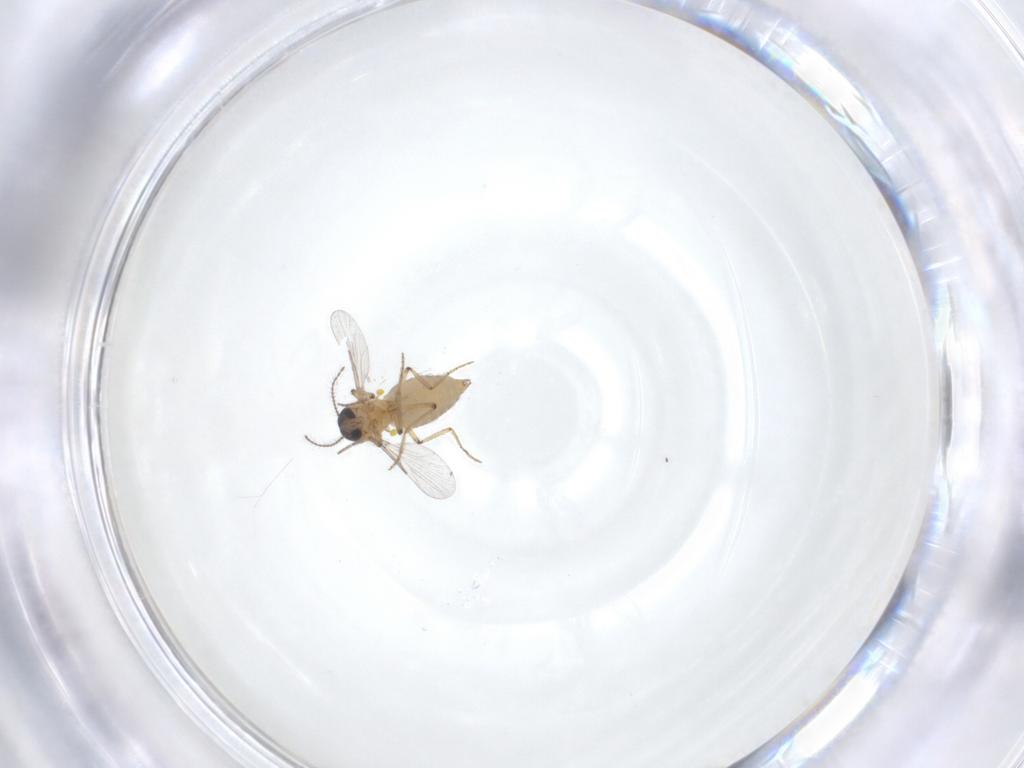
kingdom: Animalia
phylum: Arthropoda
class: Insecta
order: Diptera
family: Ceratopogonidae
